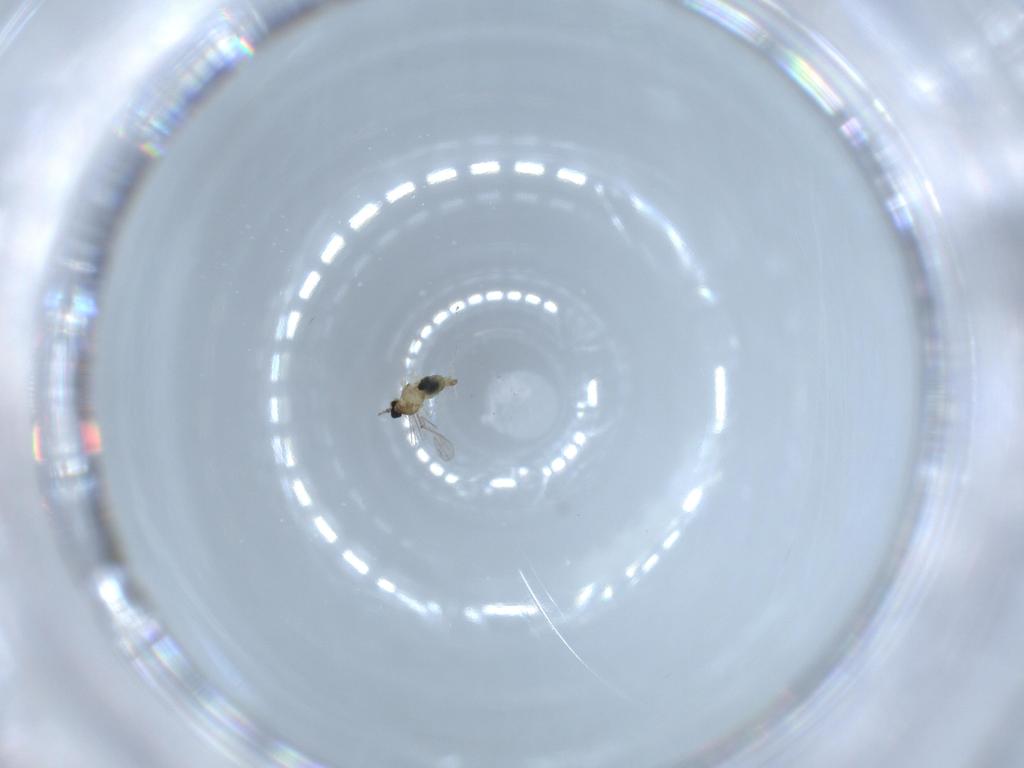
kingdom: Animalia
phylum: Arthropoda
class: Insecta
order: Diptera
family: Cecidomyiidae
